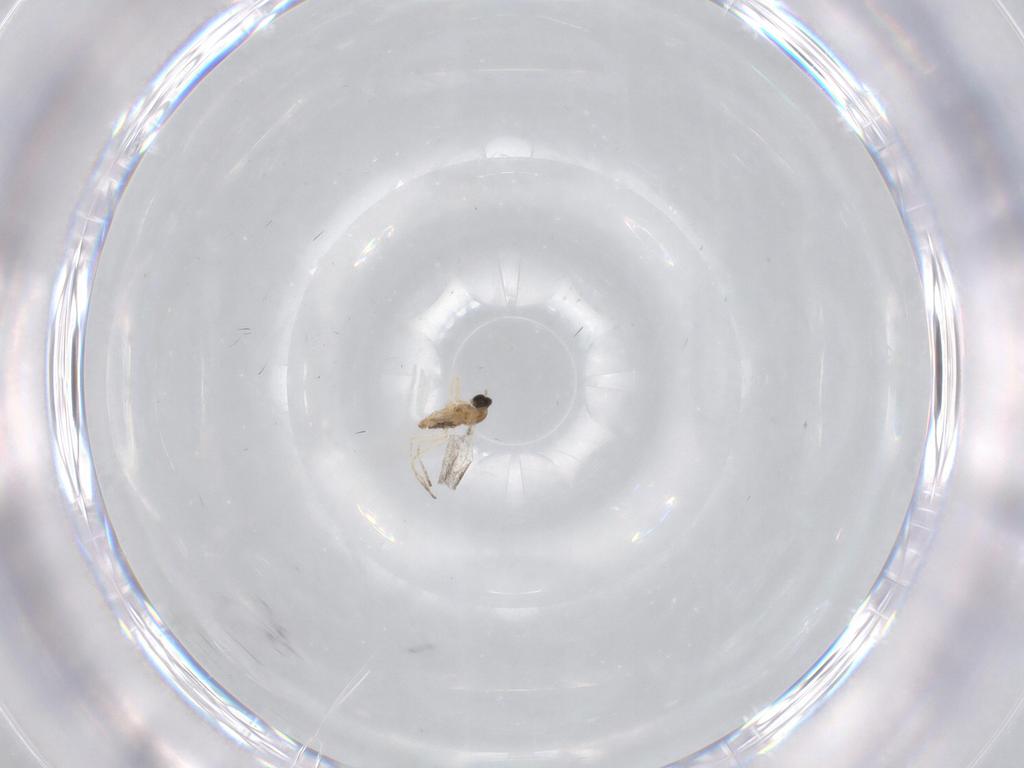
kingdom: Animalia
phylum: Arthropoda
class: Insecta
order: Diptera
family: Cecidomyiidae
